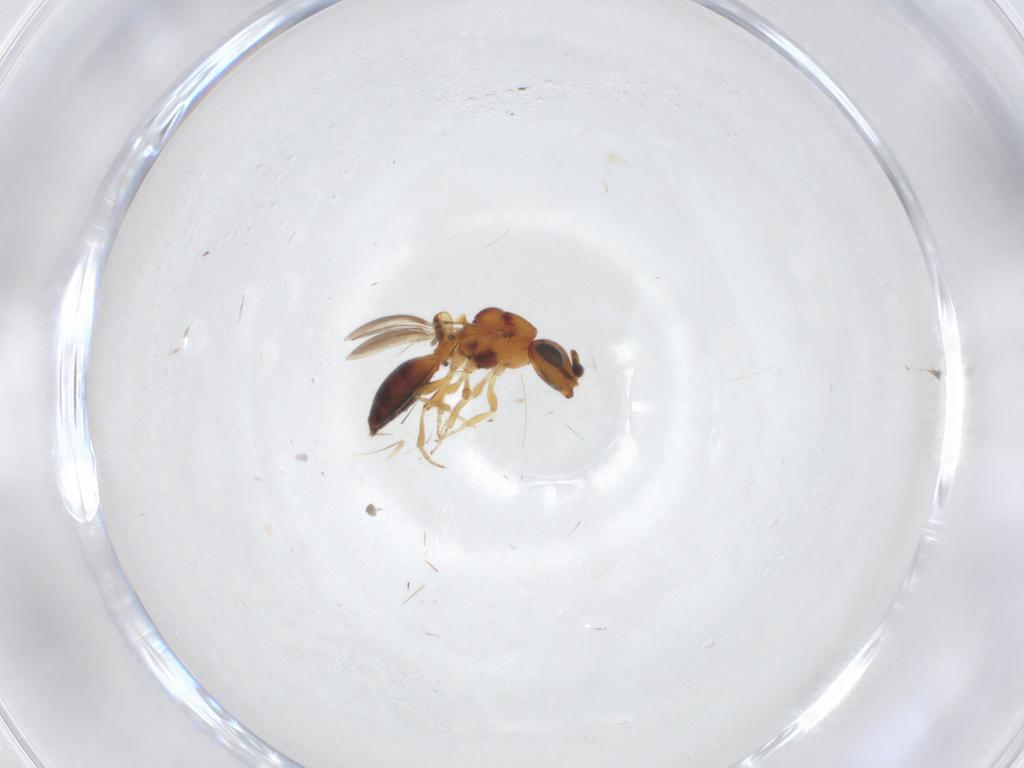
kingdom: Animalia
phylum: Arthropoda
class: Insecta
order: Hymenoptera
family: Scelionidae
